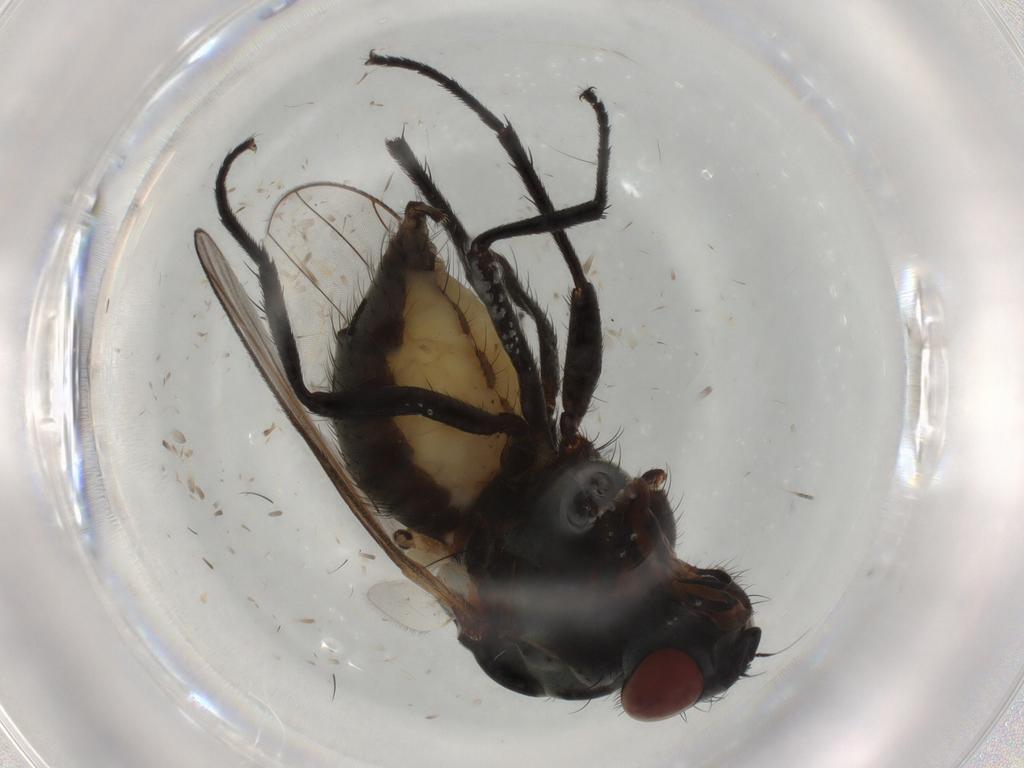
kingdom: Animalia
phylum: Arthropoda
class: Insecta
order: Diptera
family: Anthomyiidae
